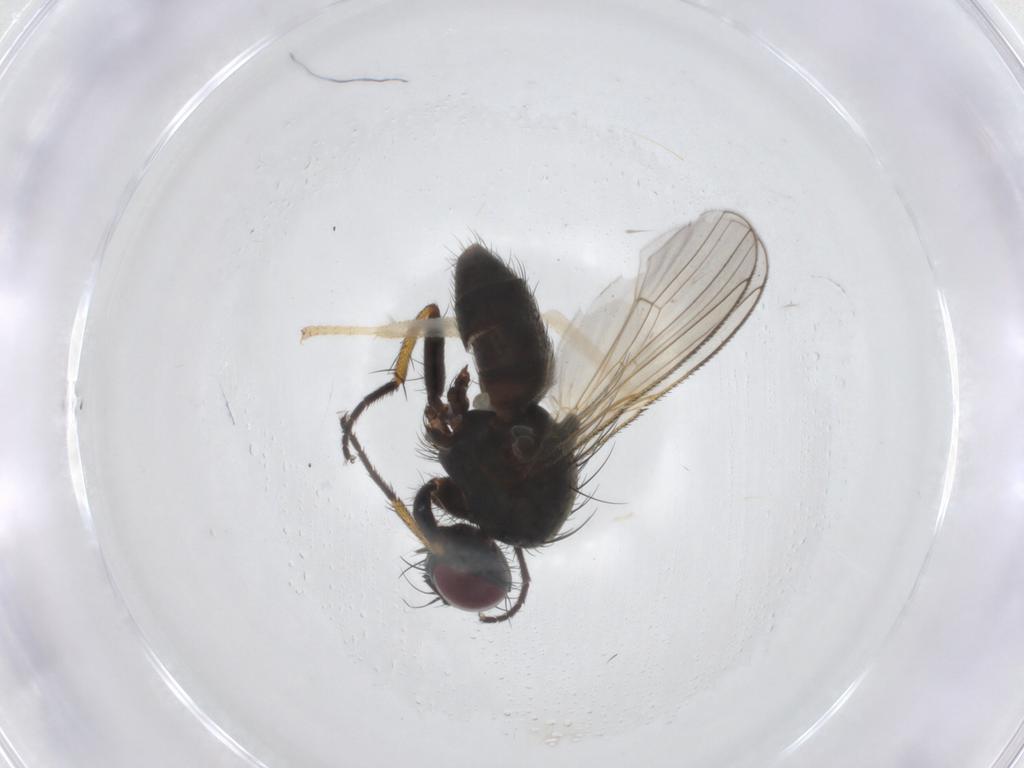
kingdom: Animalia
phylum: Arthropoda
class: Insecta
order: Diptera
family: Muscidae
